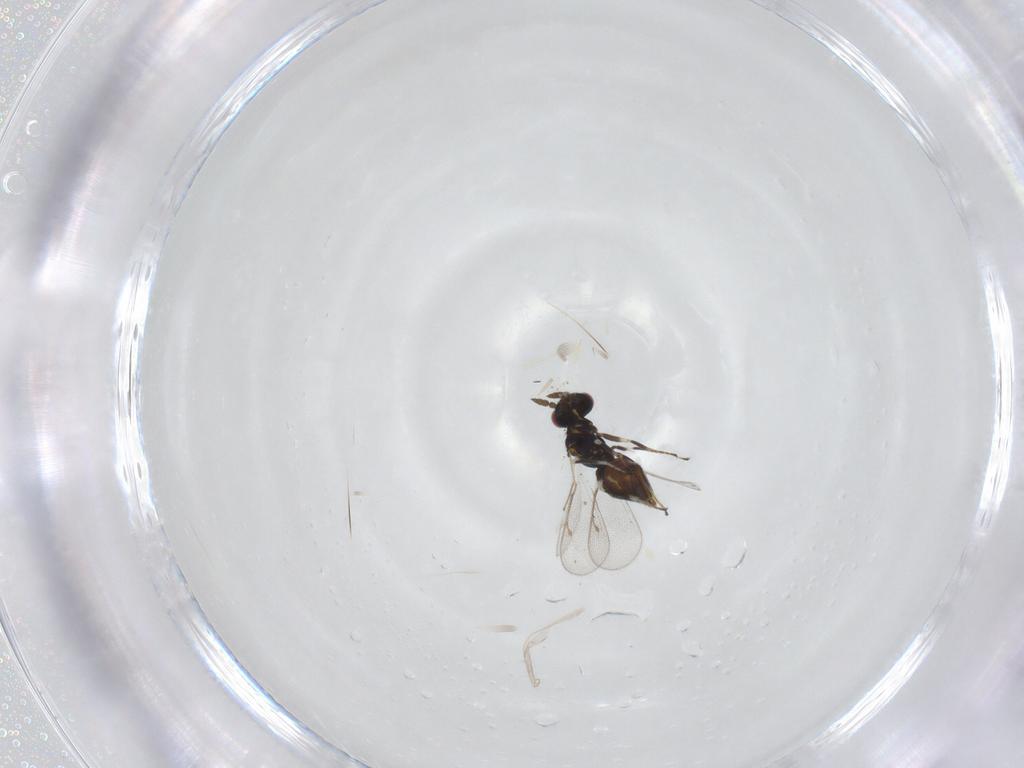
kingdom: Animalia
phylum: Arthropoda
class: Insecta
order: Hymenoptera
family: Eulophidae
